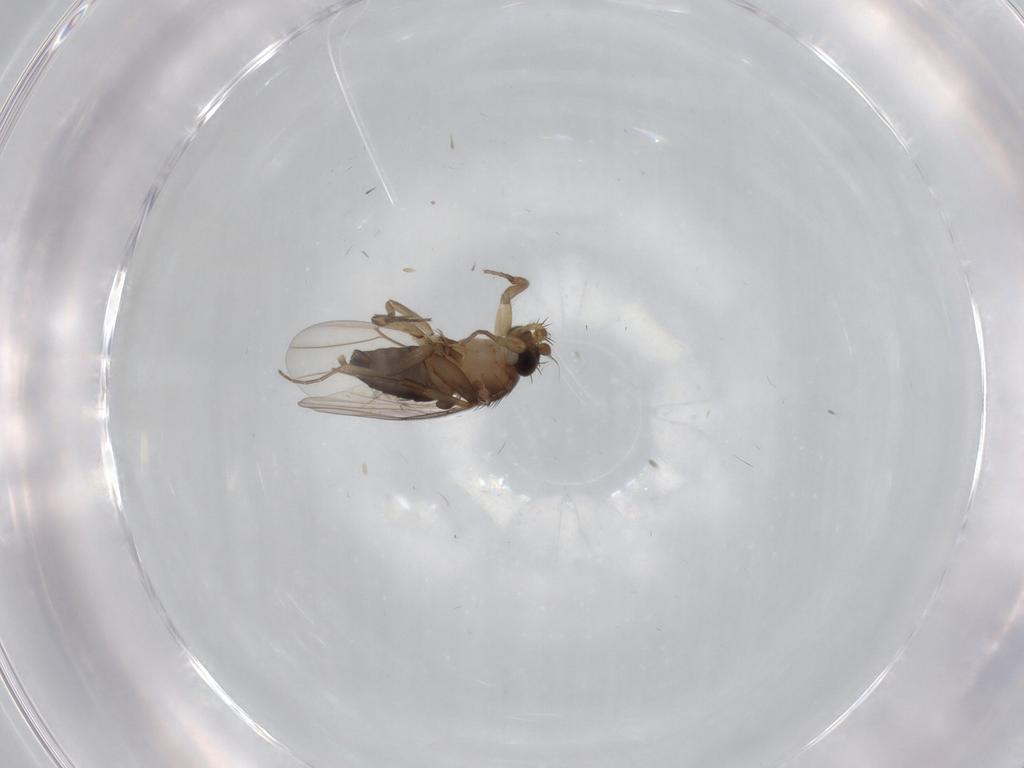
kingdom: Animalia
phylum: Arthropoda
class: Insecta
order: Diptera
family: Phoridae
